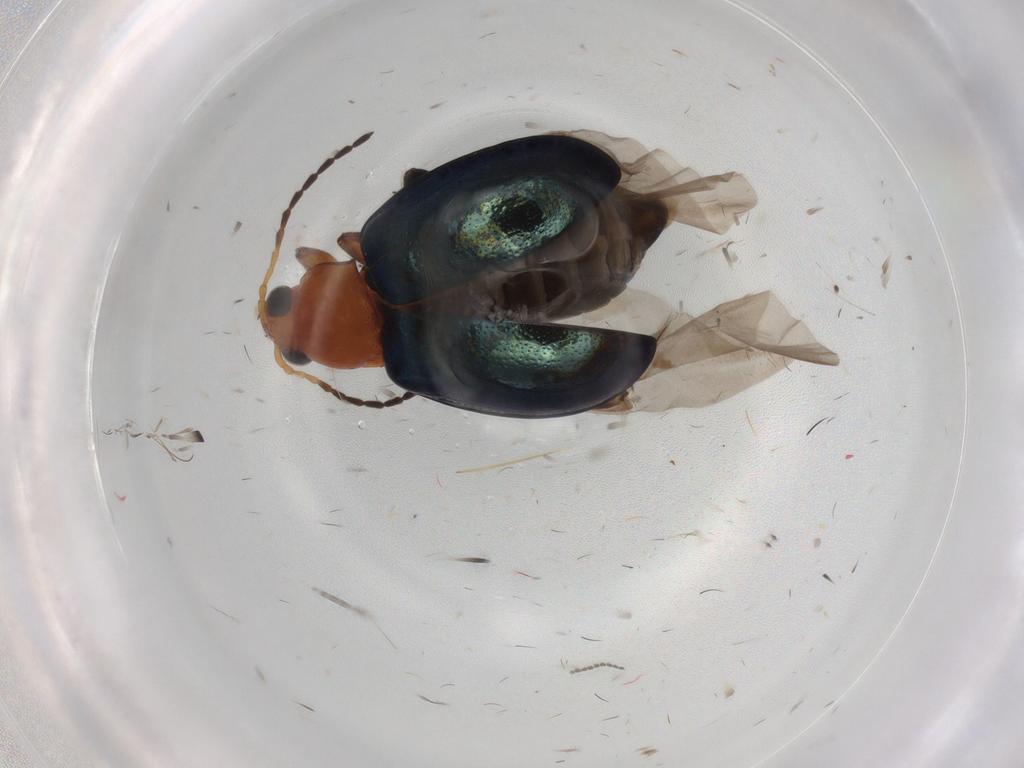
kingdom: Animalia
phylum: Arthropoda
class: Insecta
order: Coleoptera
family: Chrysomelidae
